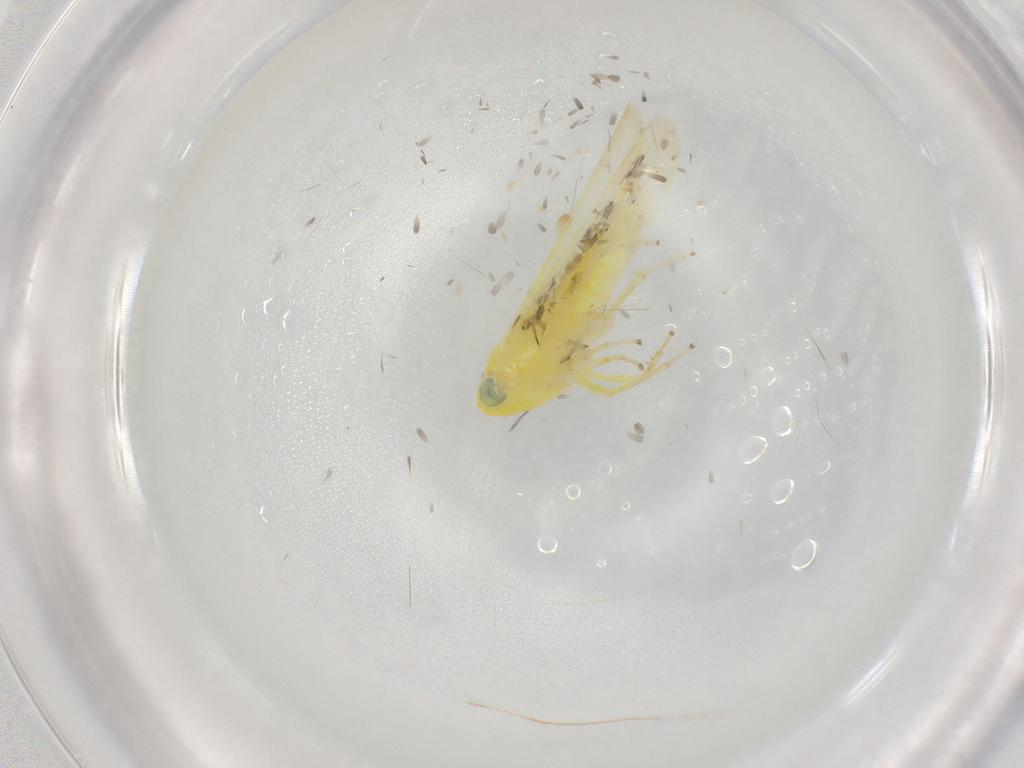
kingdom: Animalia
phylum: Arthropoda
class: Insecta
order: Hemiptera
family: Cicadellidae
